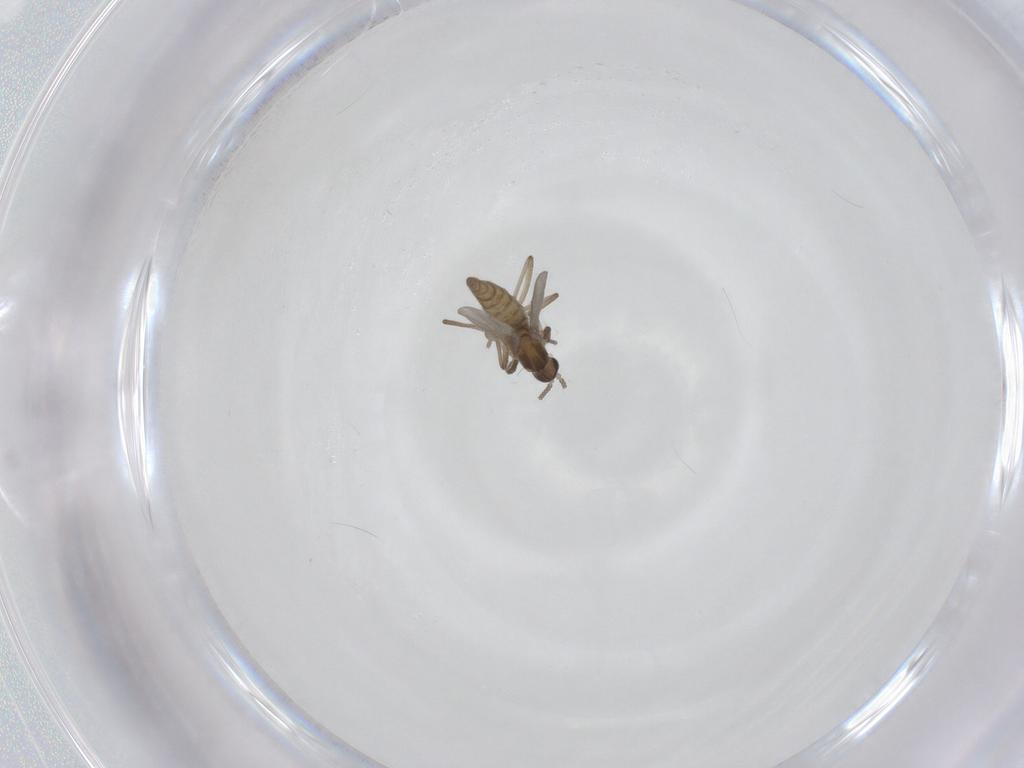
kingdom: Animalia
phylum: Arthropoda
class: Insecta
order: Diptera
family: Cecidomyiidae
